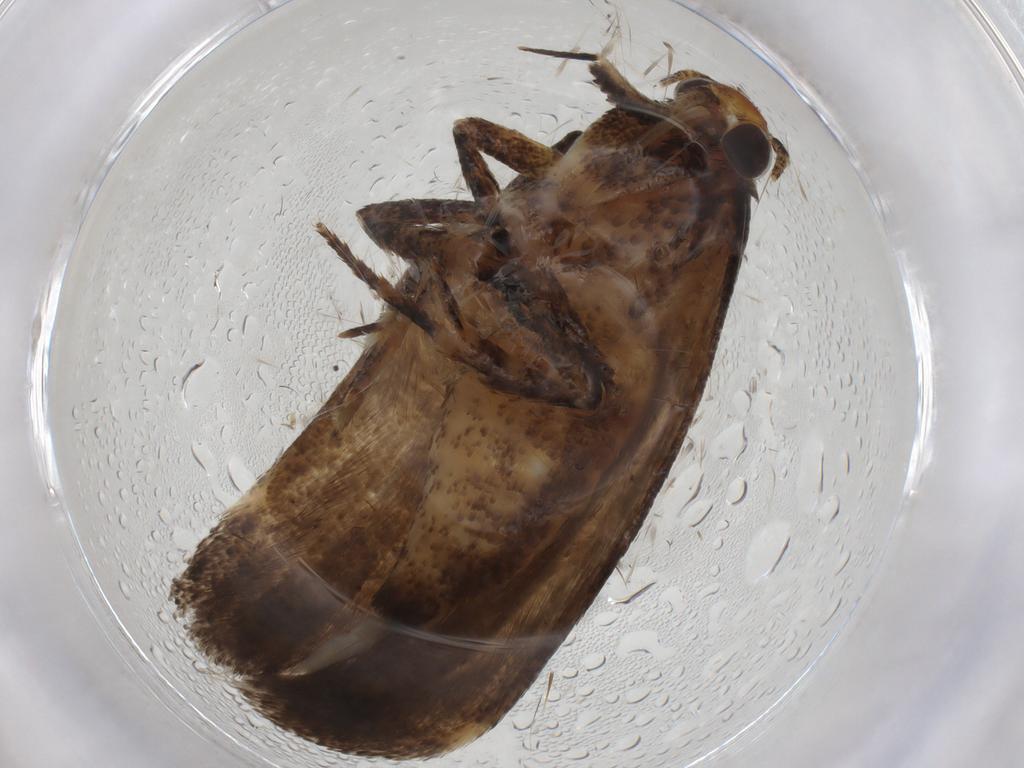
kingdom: Animalia
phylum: Arthropoda
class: Insecta
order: Lepidoptera
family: Gelechiidae
